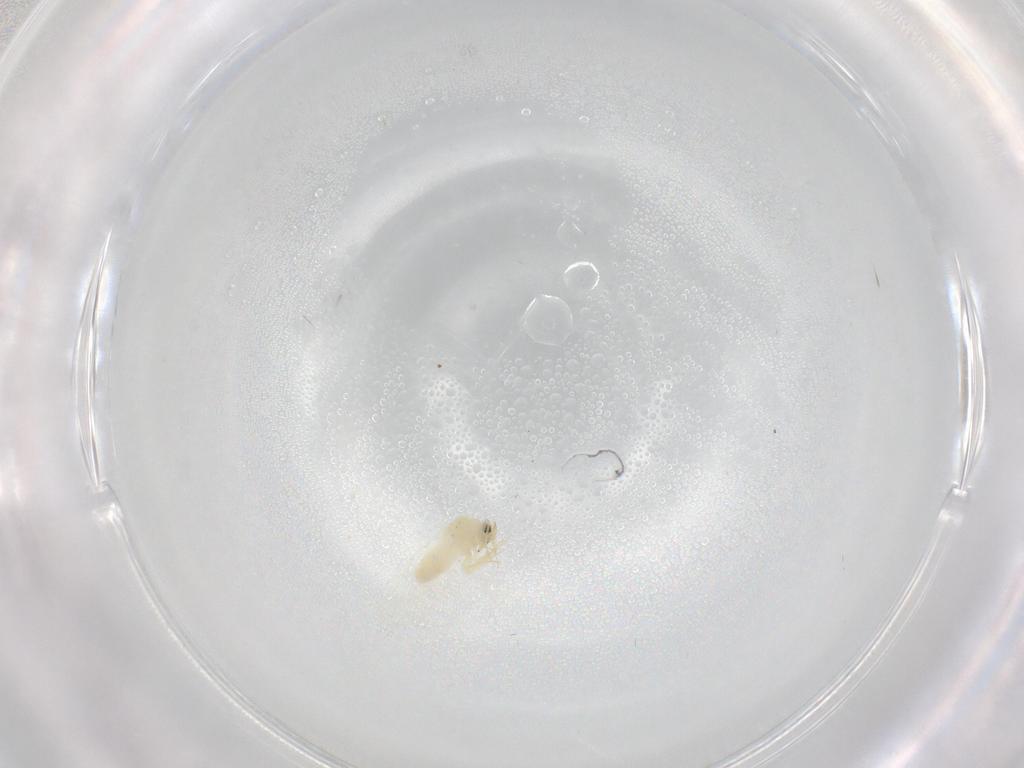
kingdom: Animalia
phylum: Arthropoda
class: Insecta
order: Hemiptera
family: Aleyrodidae
